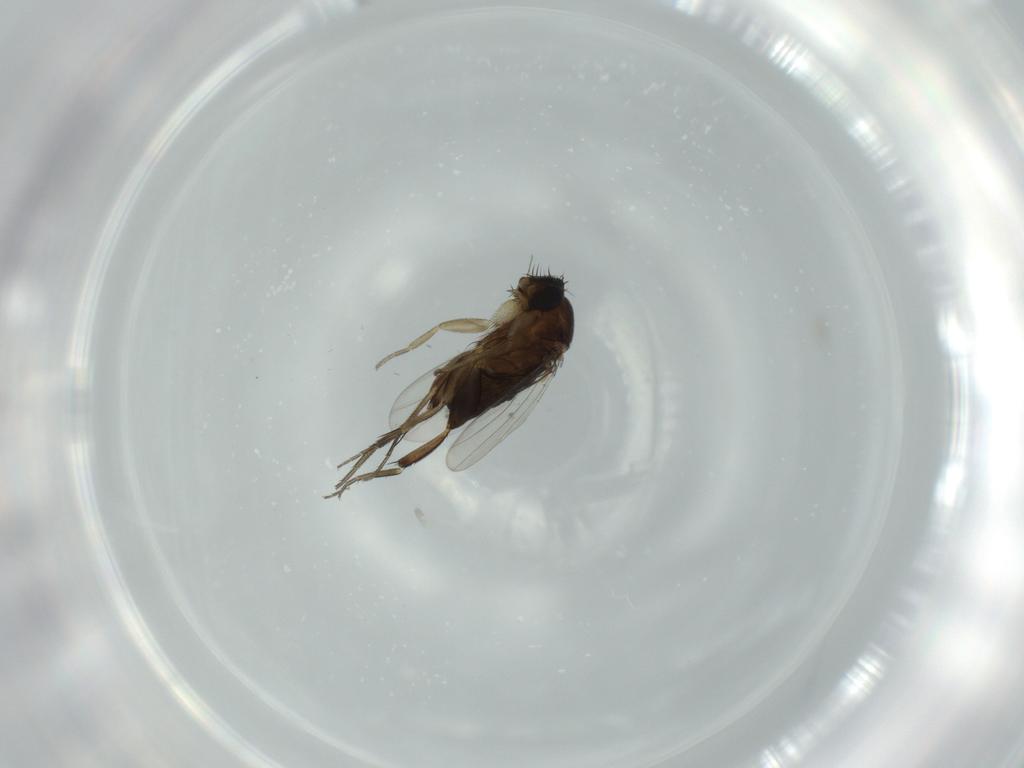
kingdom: Animalia
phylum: Arthropoda
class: Insecta
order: Diptera
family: Phoridae
